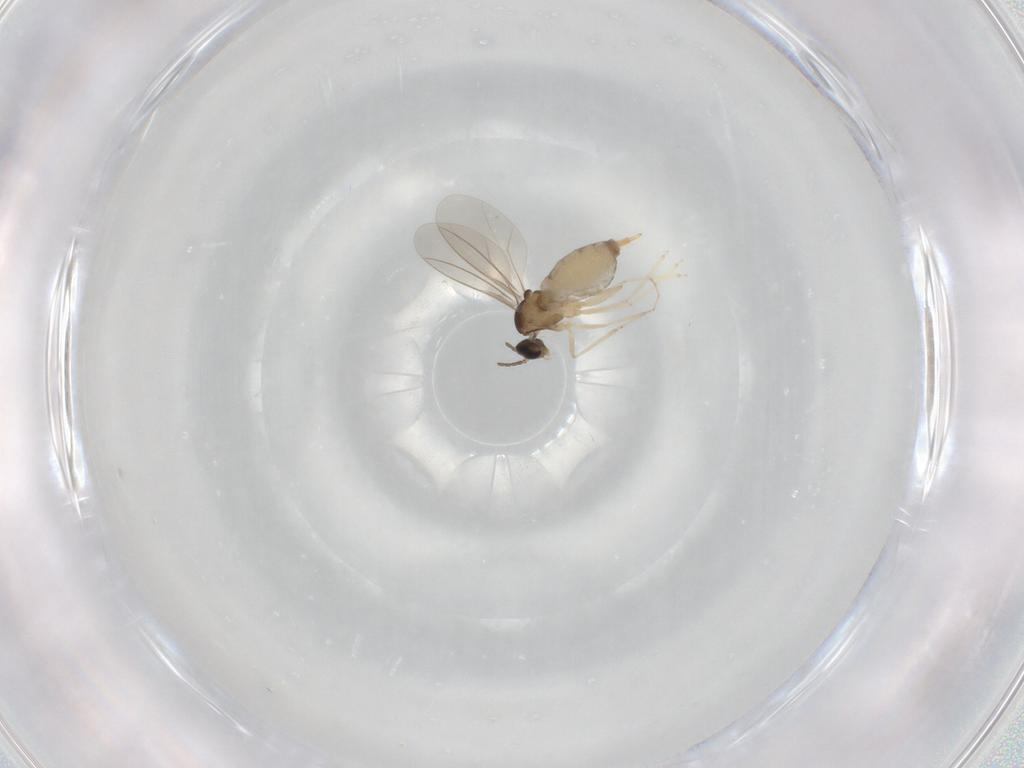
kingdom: Animalia
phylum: Arthropoda
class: Insecta
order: Diptera
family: Cecidomyiidae
